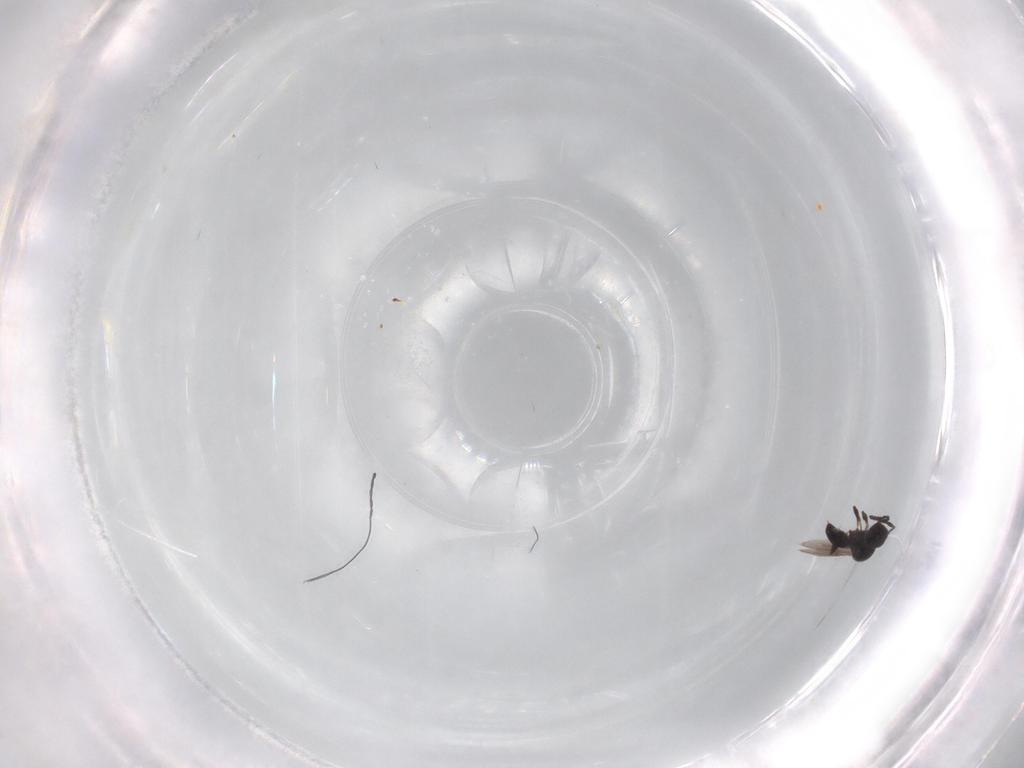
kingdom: Animalia
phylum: Arthropoda
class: Insecta
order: Hymenoptera
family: Platygastridae
